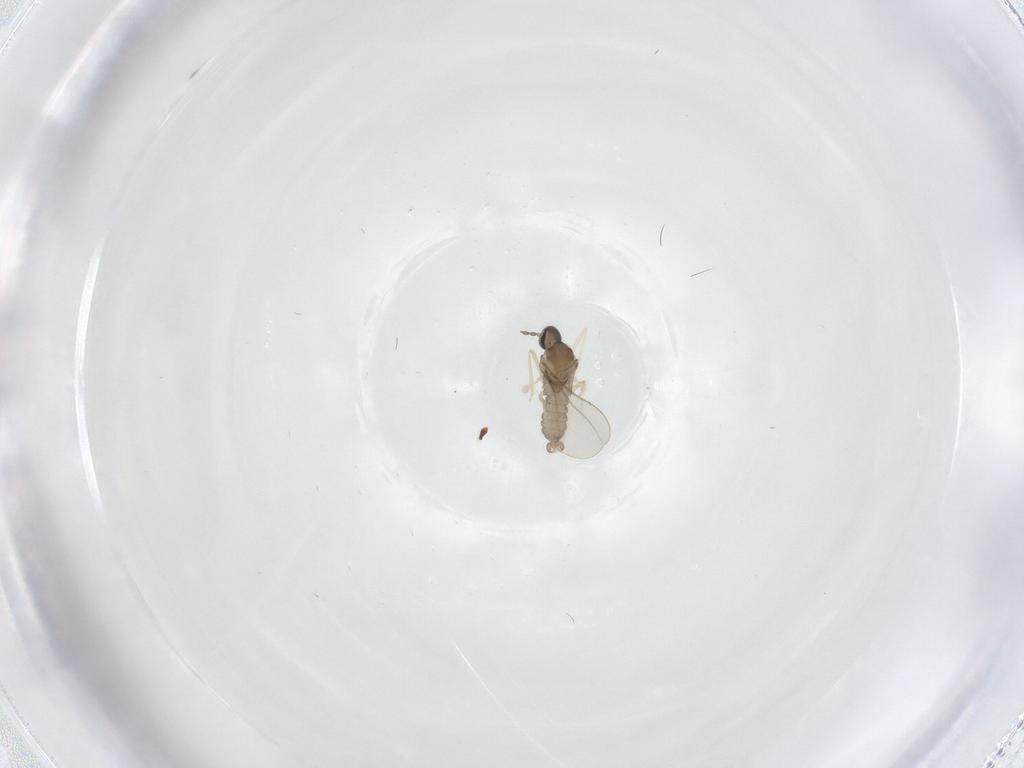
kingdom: Animalia
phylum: Arthropoda
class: Insecta
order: Diptera
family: Tabanidae
